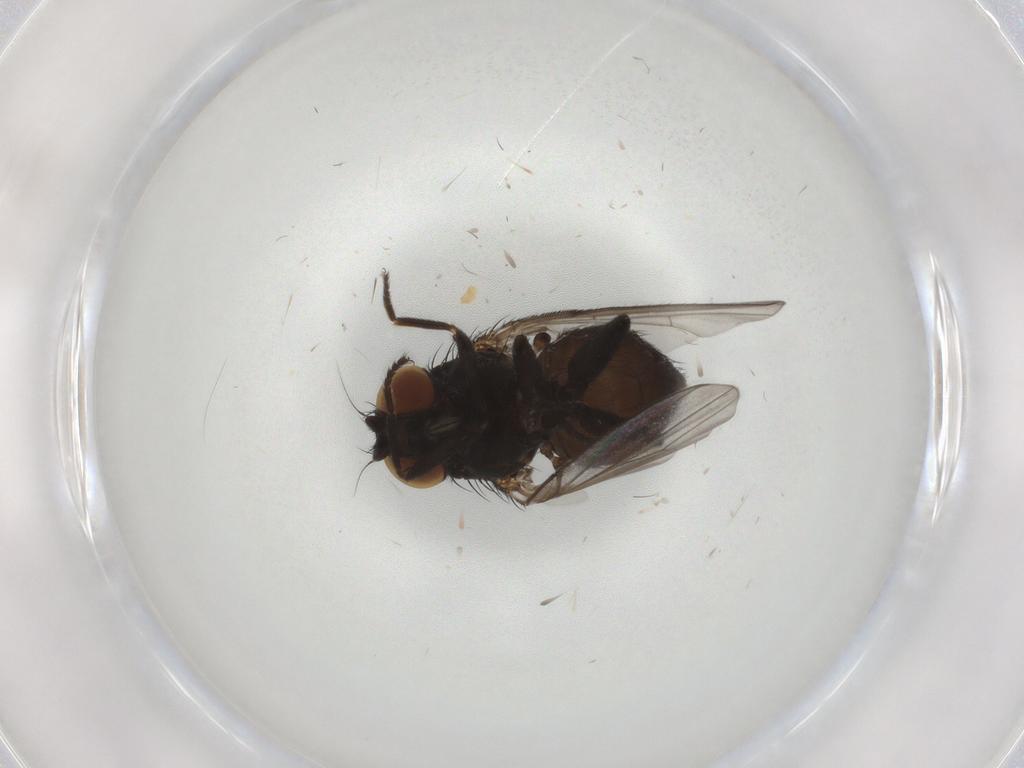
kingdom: Animalia
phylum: Arthropoda
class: Insecta
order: Diptera
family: Milichiidae
